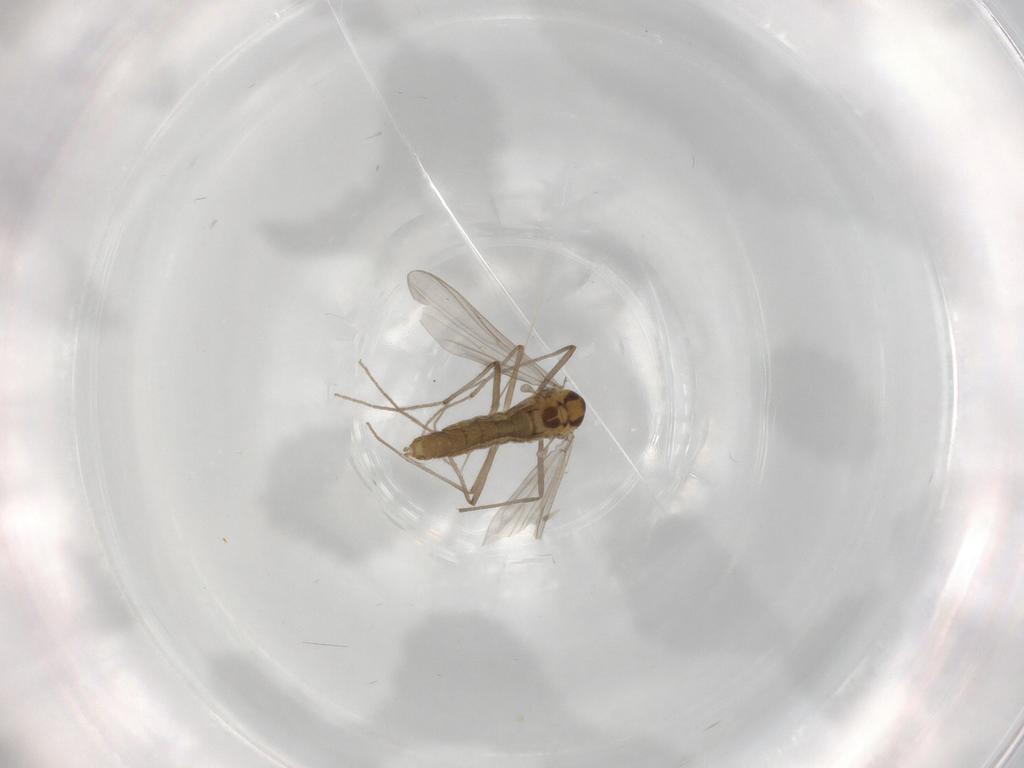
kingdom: Animalia
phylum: Arthropoda
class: Insecta
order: Diptera
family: Chironomidae
